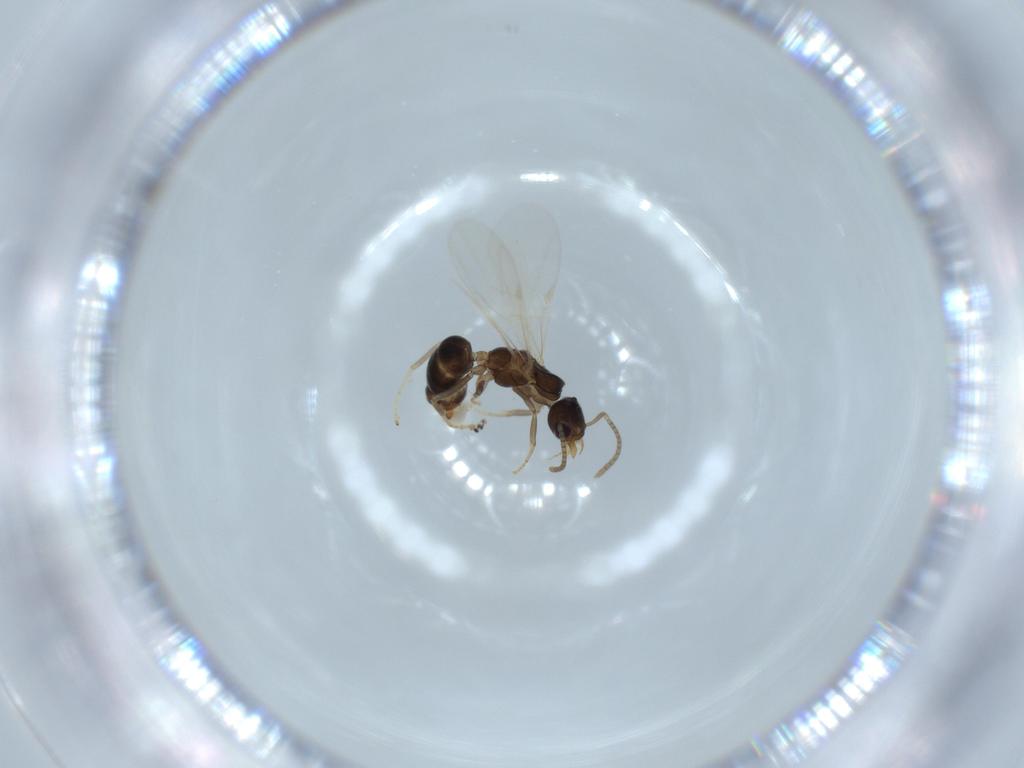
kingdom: Animalia
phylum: Arthropoda
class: Insecta
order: Hymenoptera
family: Formicidae
